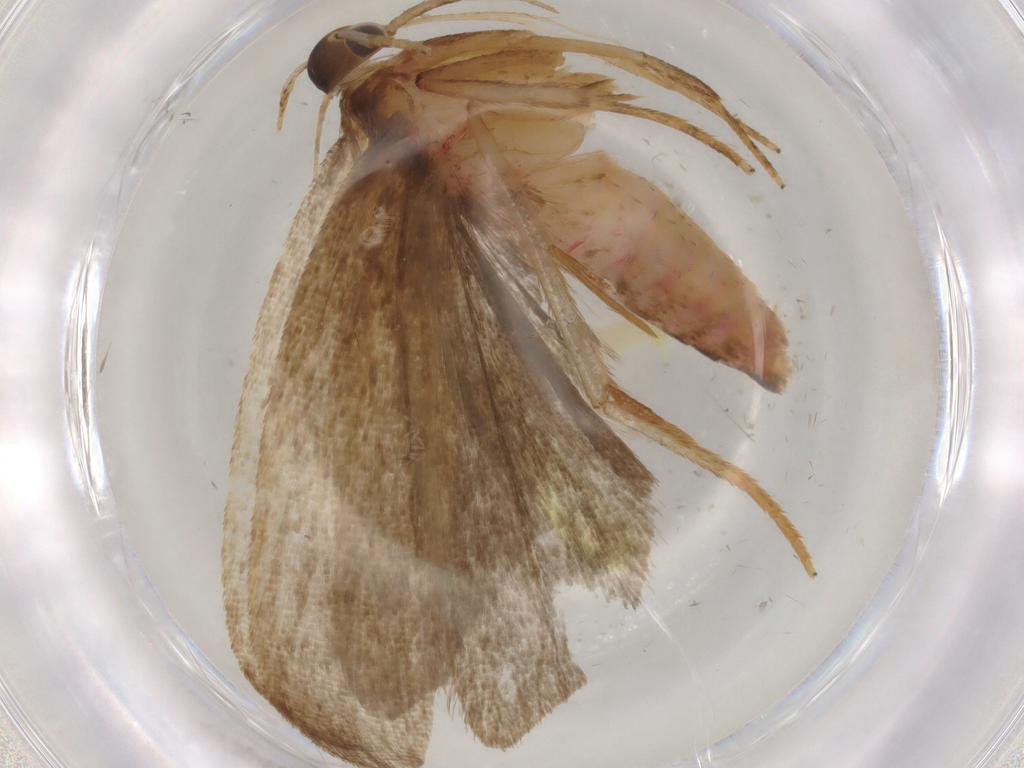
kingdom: Animalia
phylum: Arthropoda
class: Insecta
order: Lepidoptera
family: Autostichidae
